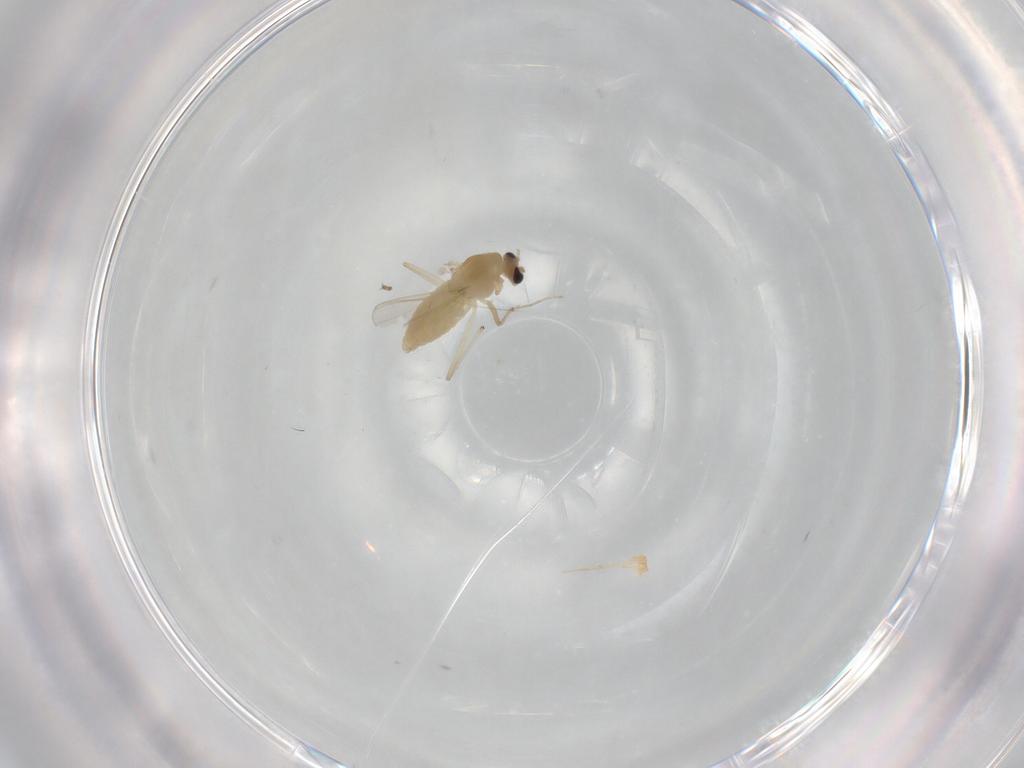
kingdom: Animalia
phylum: Arthropoda
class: Insecta
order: Diptera
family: Chironomidae
